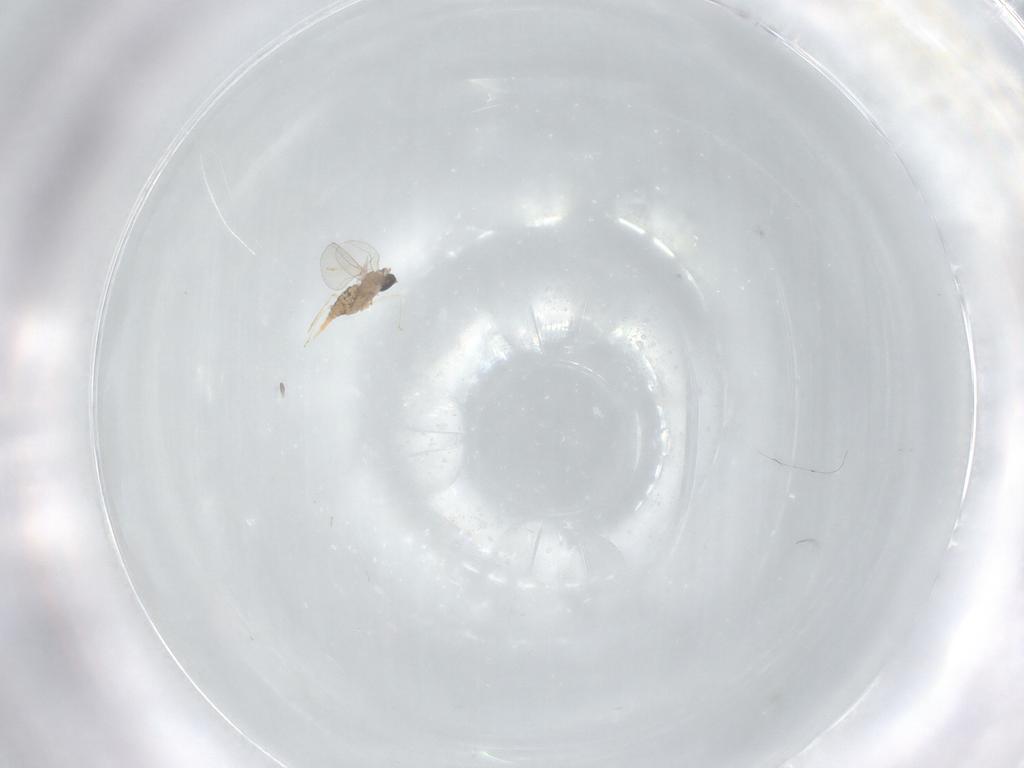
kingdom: Animalia
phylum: Arthropoda
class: Insecta
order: Diptera
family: Cecidomyiidae
